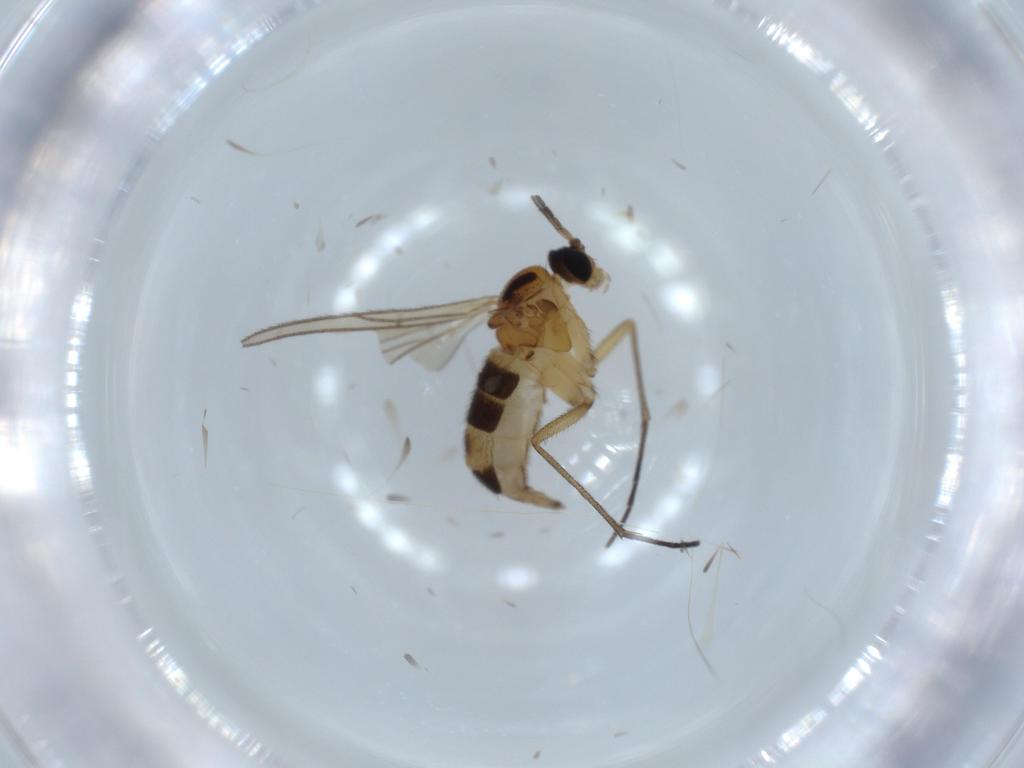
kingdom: Animalia
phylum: Arthropoda
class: Insecta
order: Diptera
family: Sciaridae
